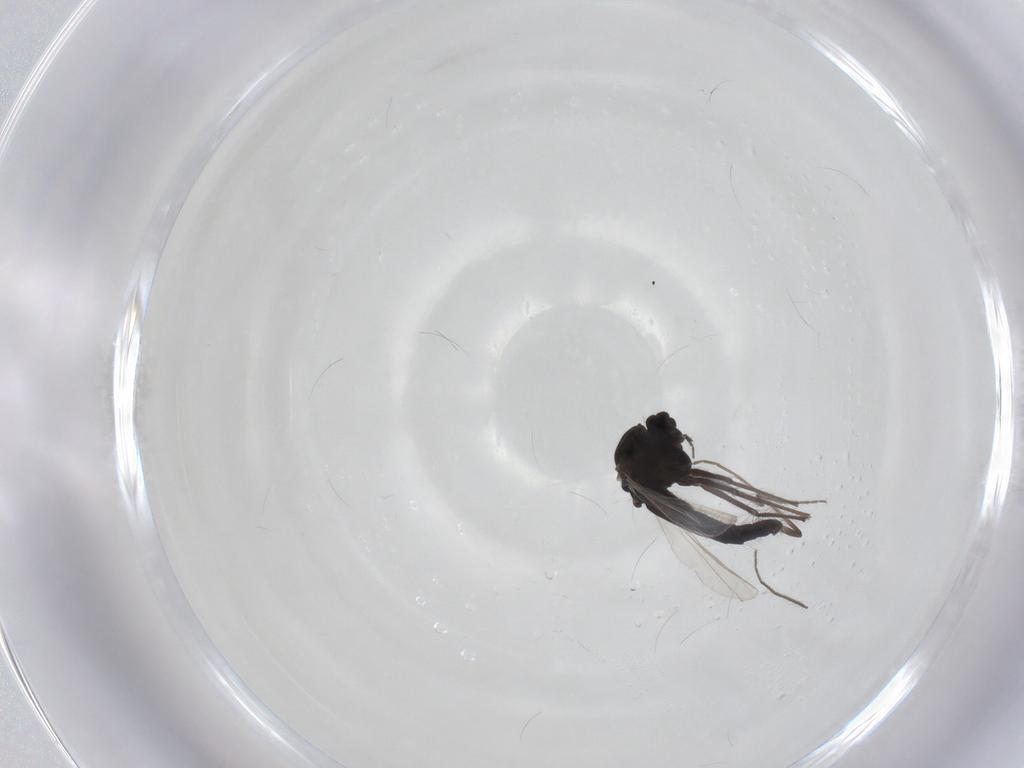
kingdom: Animalia
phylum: Arthropoda
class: Insecta
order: Diptera
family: Chironomidae
